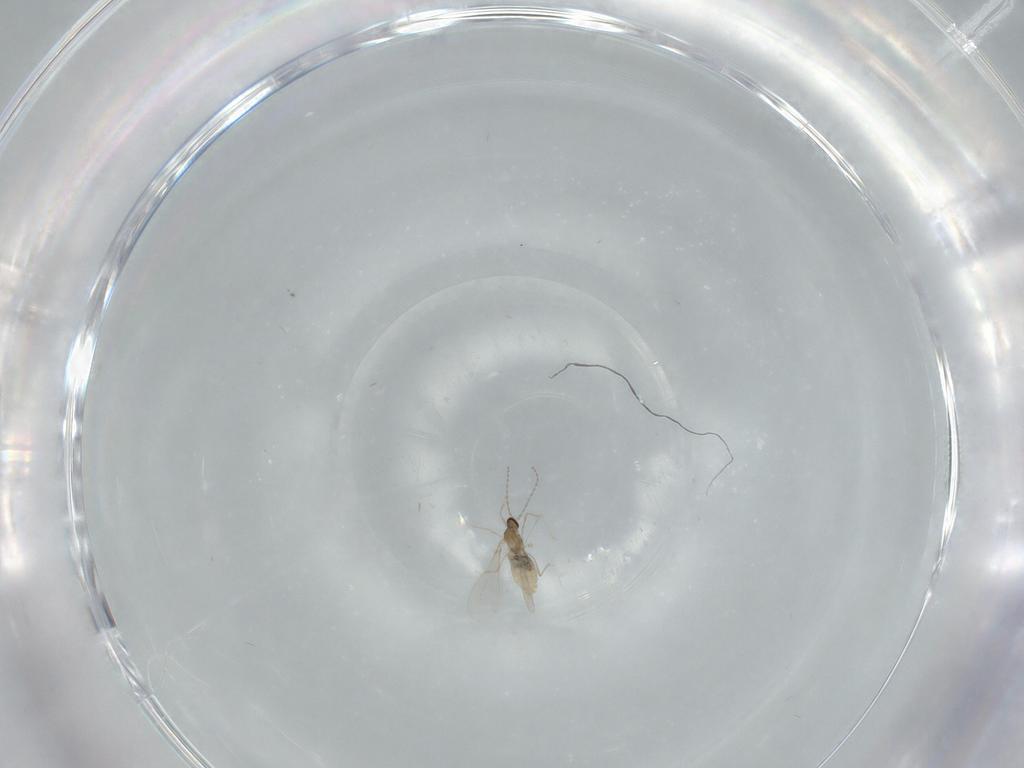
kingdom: Animalia
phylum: Arthropoda
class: Insecta
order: Diptera
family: Cecidomyiidae
